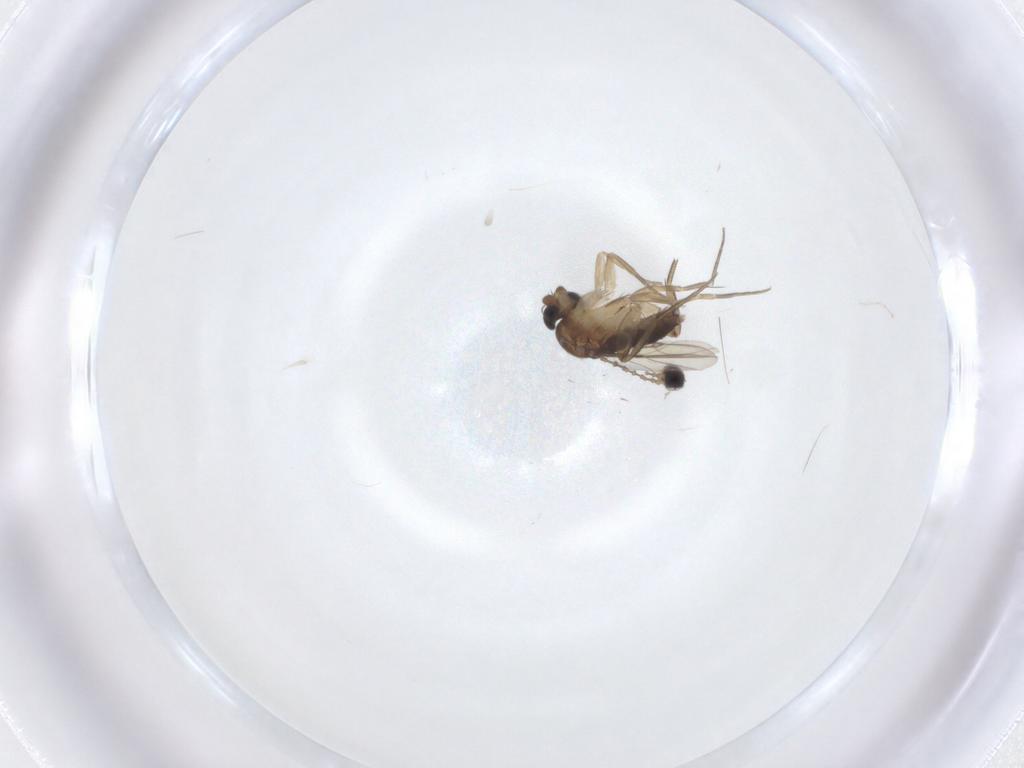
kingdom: Animalia
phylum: Arthropoda
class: Insecta
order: Diptera
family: Phoridae
